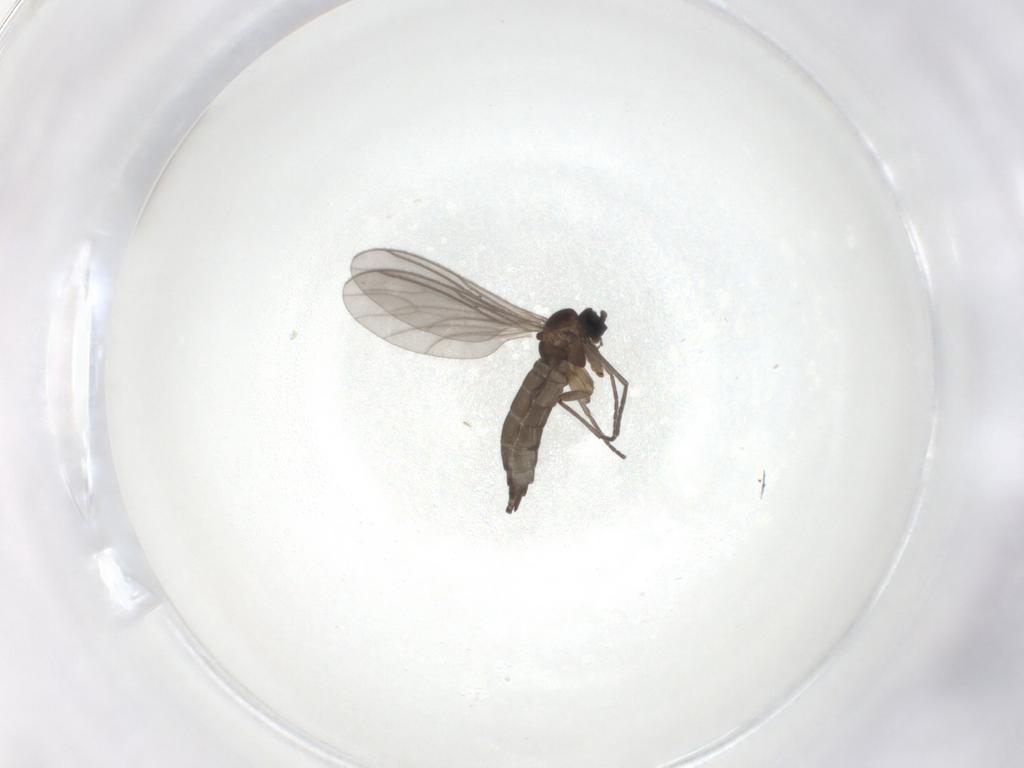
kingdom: Animalia
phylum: Arthropoda
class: Insecta
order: Diptera
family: Sciaridae
